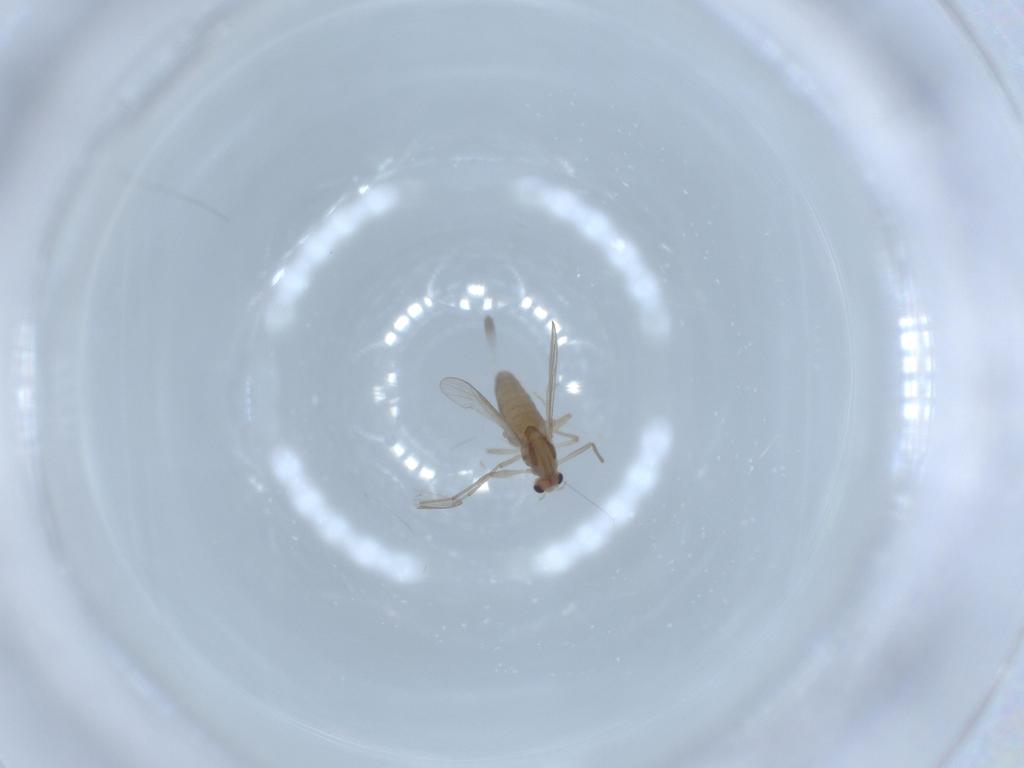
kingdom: Animalia
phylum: Arthropoda
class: Insecta
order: Diptera
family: Chironomidae
